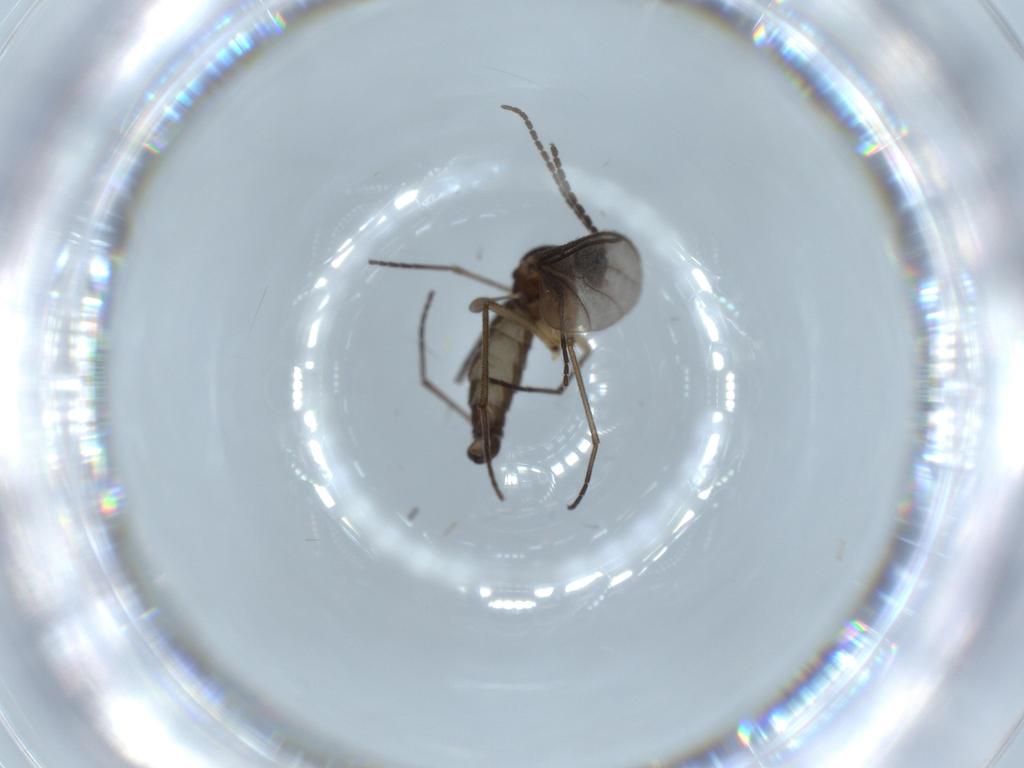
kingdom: Animalia
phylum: Arthropoda
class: Insecta
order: Diptera
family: Sciaridae
